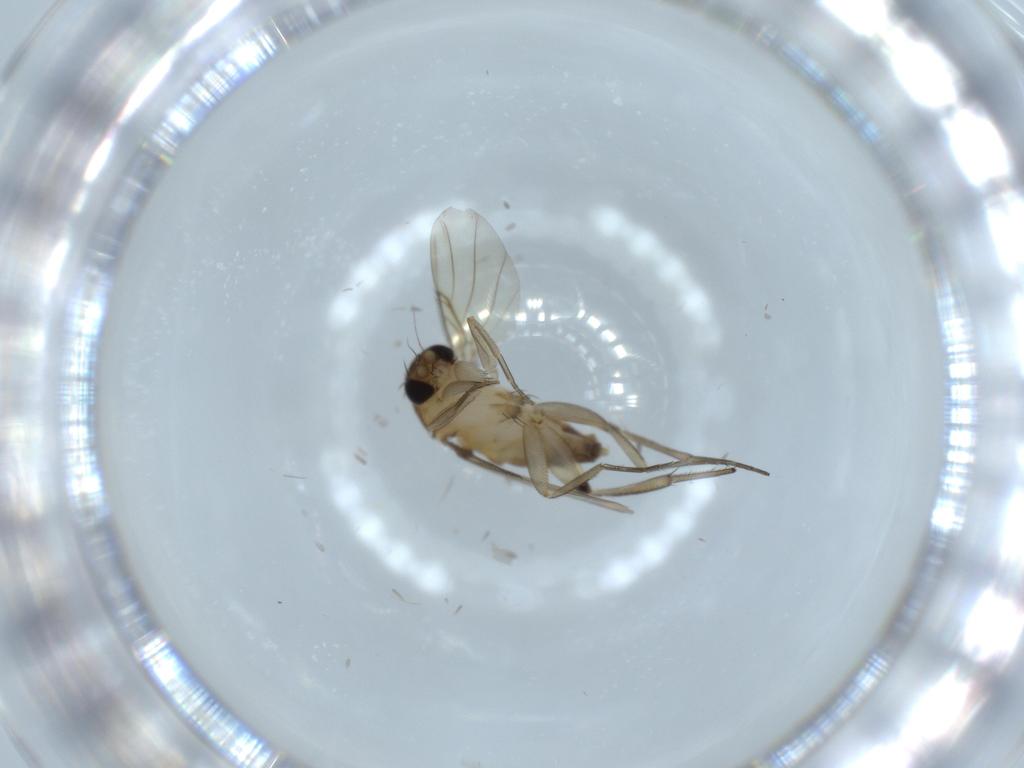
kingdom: Animalia
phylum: Arthropoda
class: Insecta
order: Diptera
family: Phoridae
